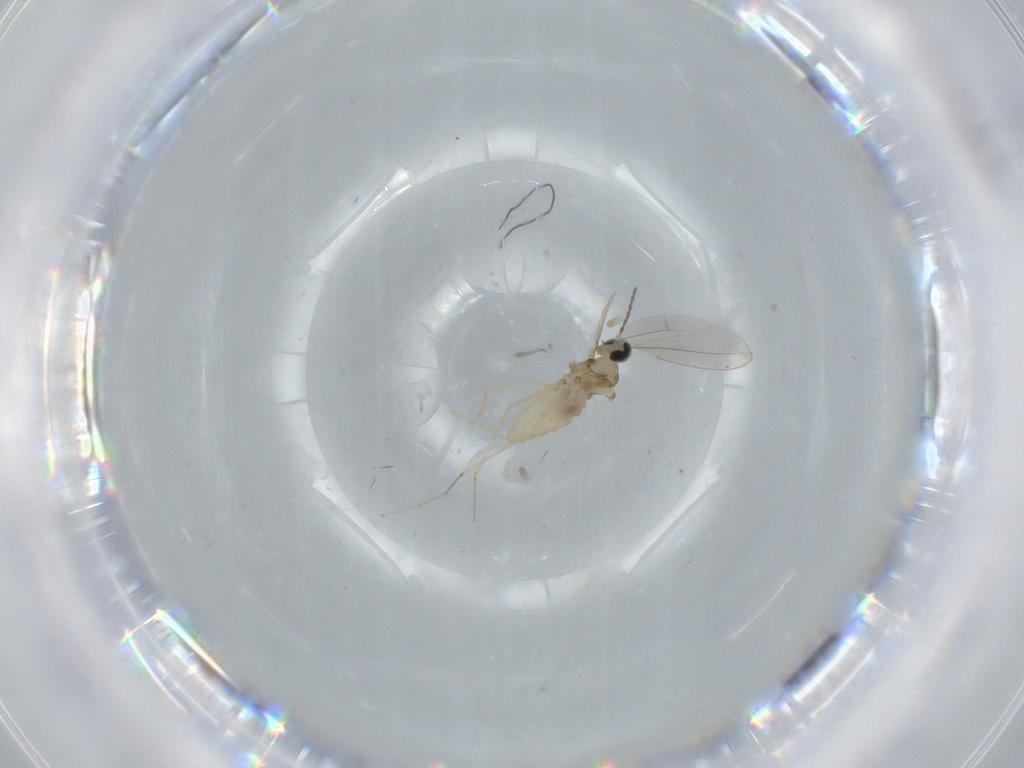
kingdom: Animalia
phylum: Arthropoda
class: Insecta
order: Diptera
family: Cecidomyiidae
